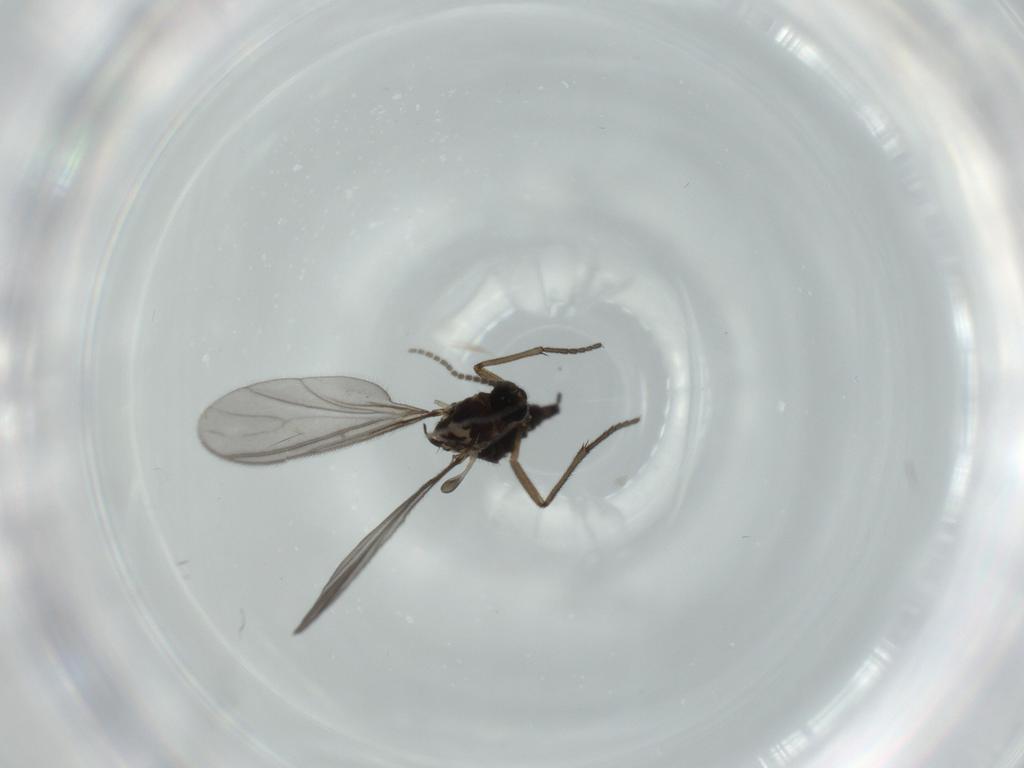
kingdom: Animalia
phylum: Arthropoda
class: Insecta
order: Diptera
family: Sciaridae
